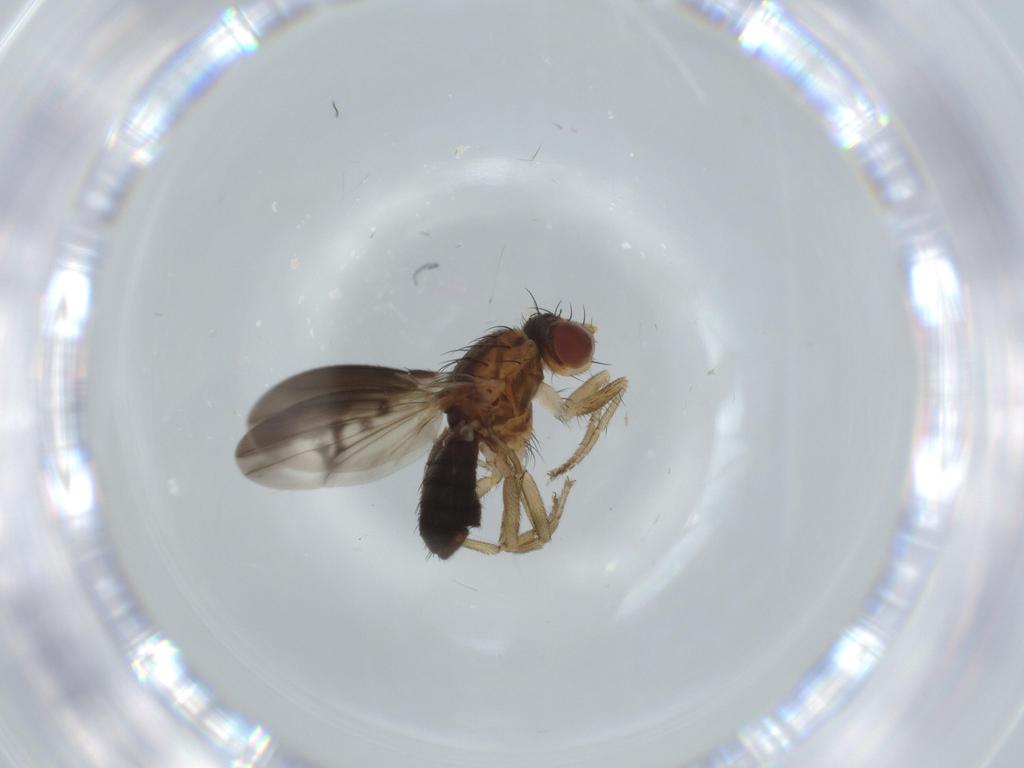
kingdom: Animalia
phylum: Arthropoda
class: Insecta
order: Diptera
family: Heleomyzidae
